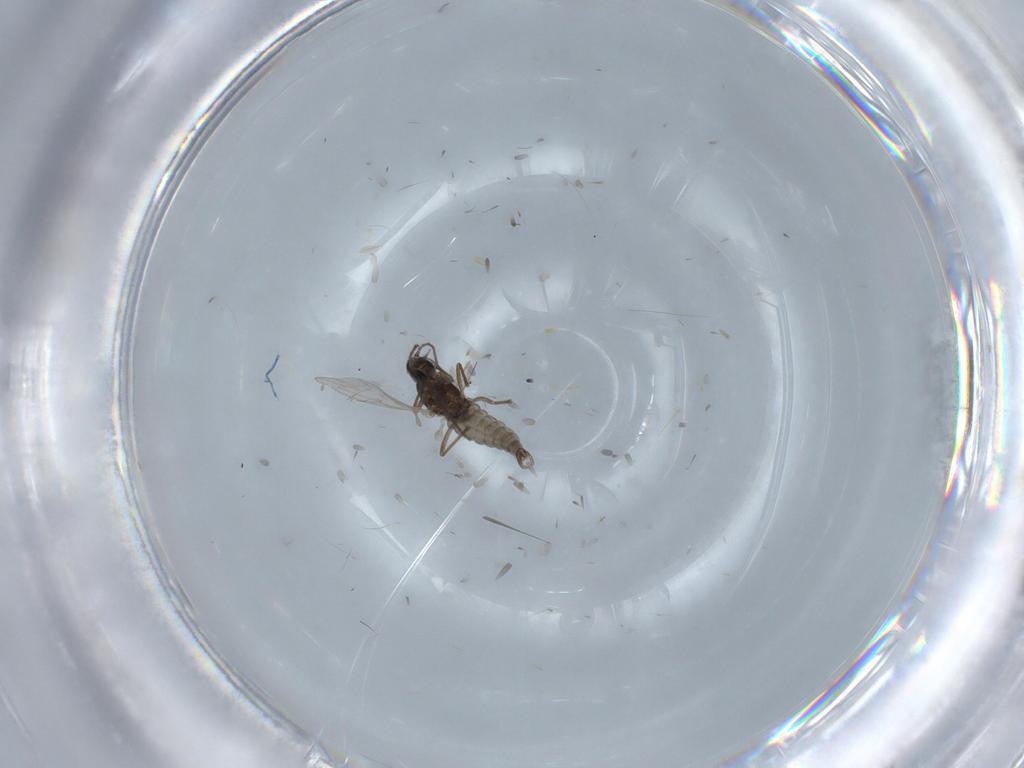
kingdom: Animalia
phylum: Arthropoda
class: Insecta
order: Diptera
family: Cecidomyiidae
